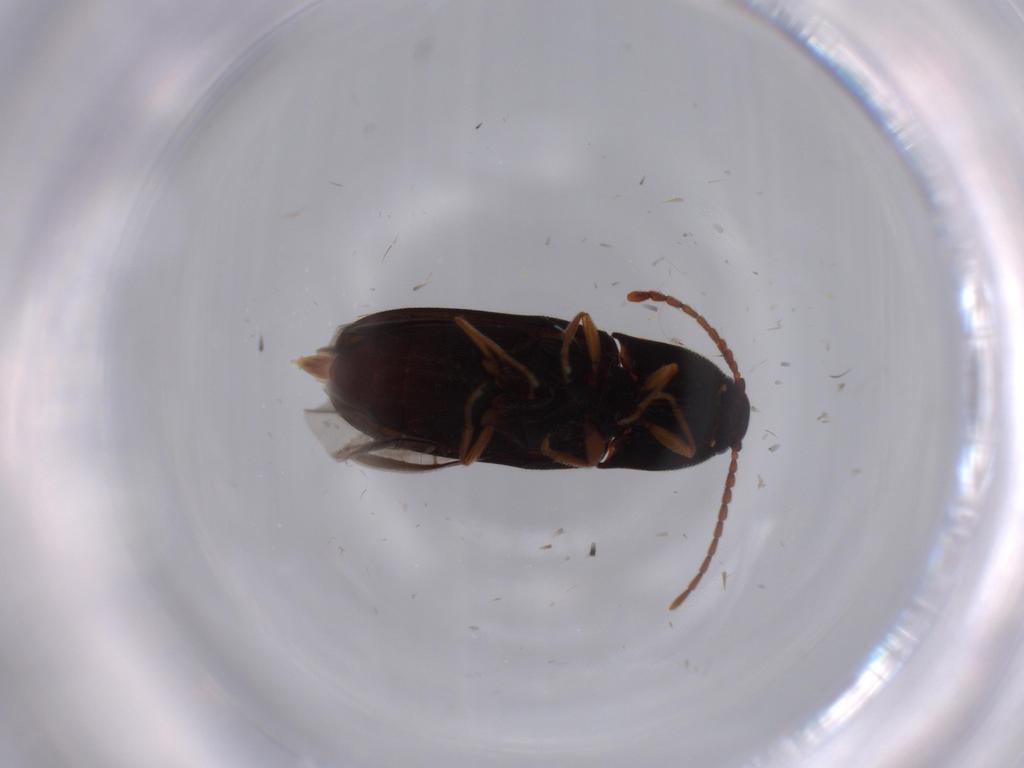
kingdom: Animalia
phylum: Arthropoda
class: Insecta
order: Coleoptera
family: Elateridae
